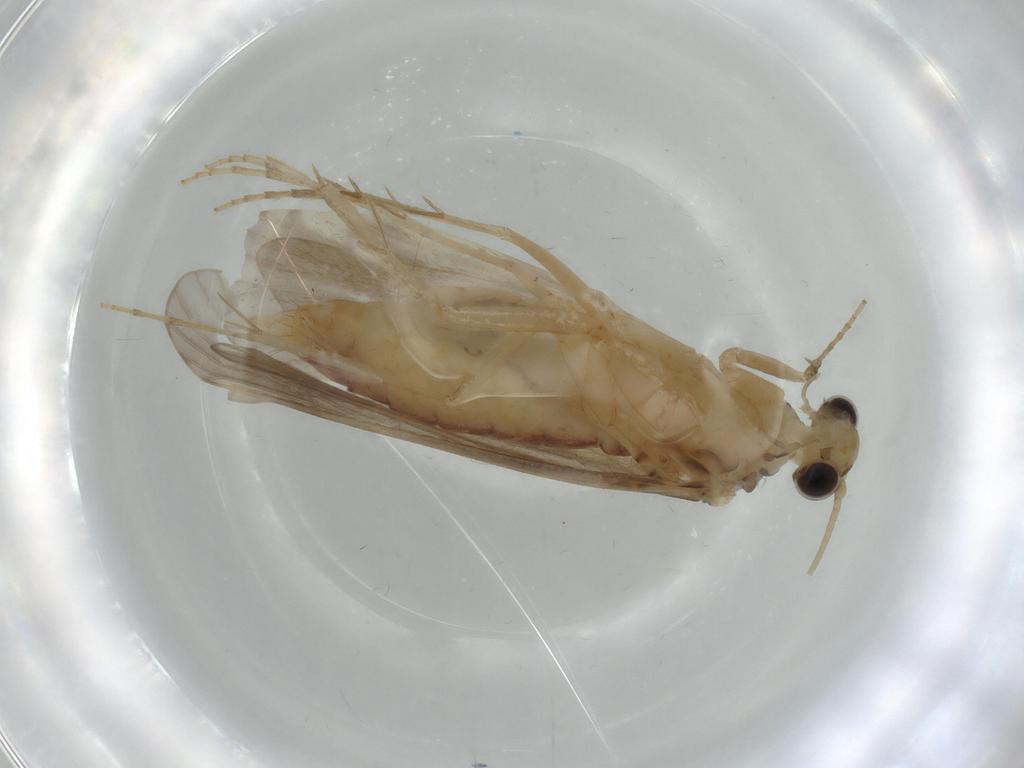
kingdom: Animalia
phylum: Arthropoda
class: Insecta
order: Trichoptera
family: Ecnomidae
